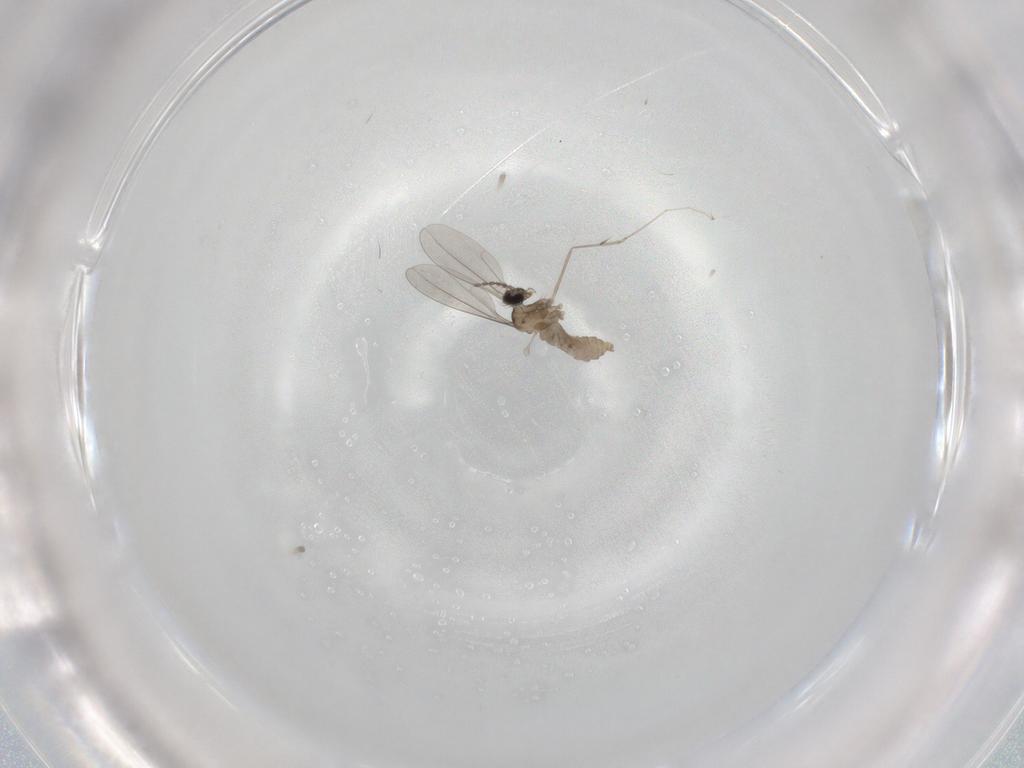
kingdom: Animalia
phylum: Arthropoda
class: Insecta
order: Diptera
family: Cecidomyiidae
